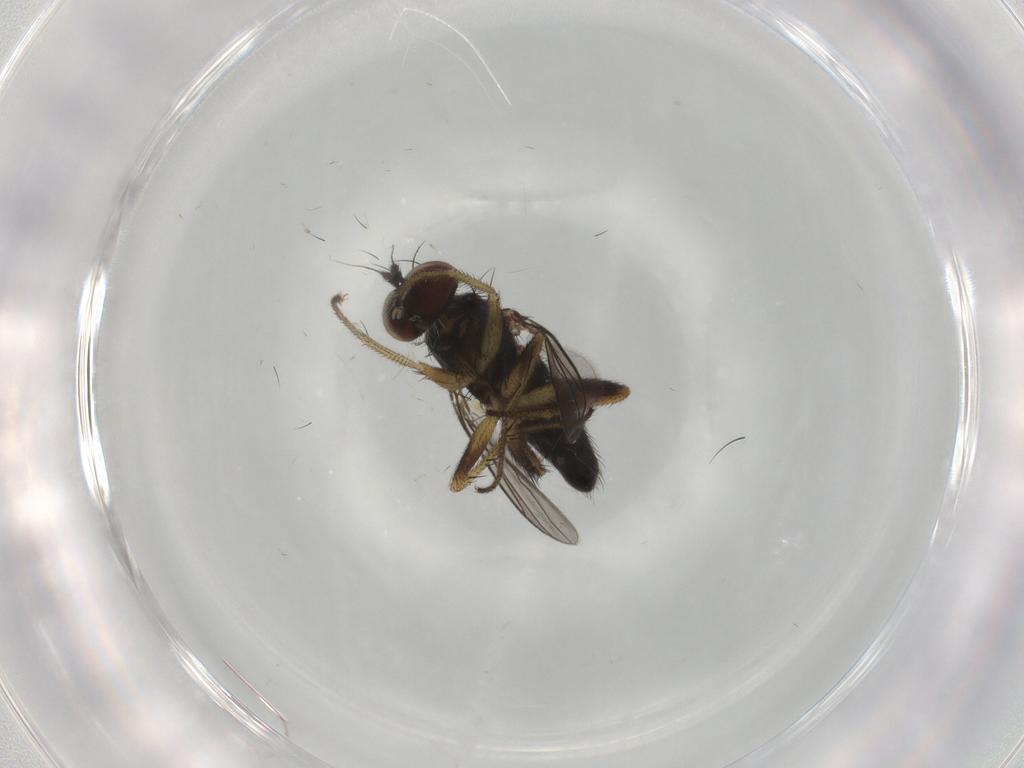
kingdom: Animalia
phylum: Arthropoda
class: Insecta
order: Diptera
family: Dolichopodidae
